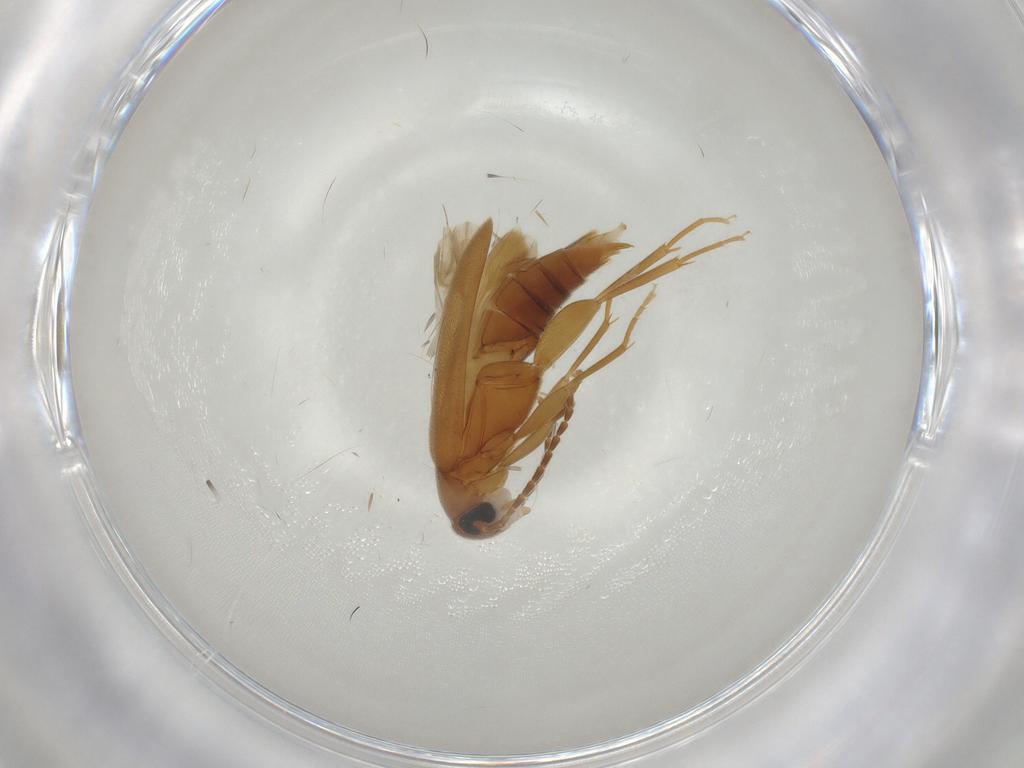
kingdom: Animalia
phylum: Arthropoda
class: Insecta
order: Coleoptera
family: Scraptiidae
